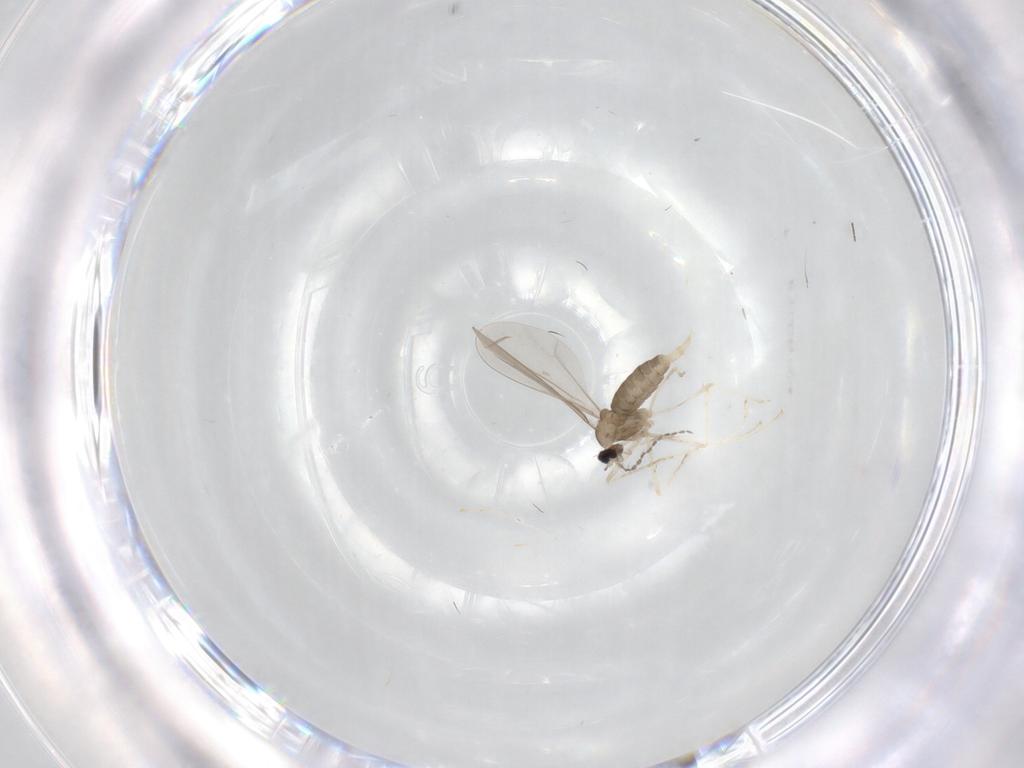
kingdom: Animalia
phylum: Arthropoda
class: Insecta
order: Diptera
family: Cecidomyiidae
